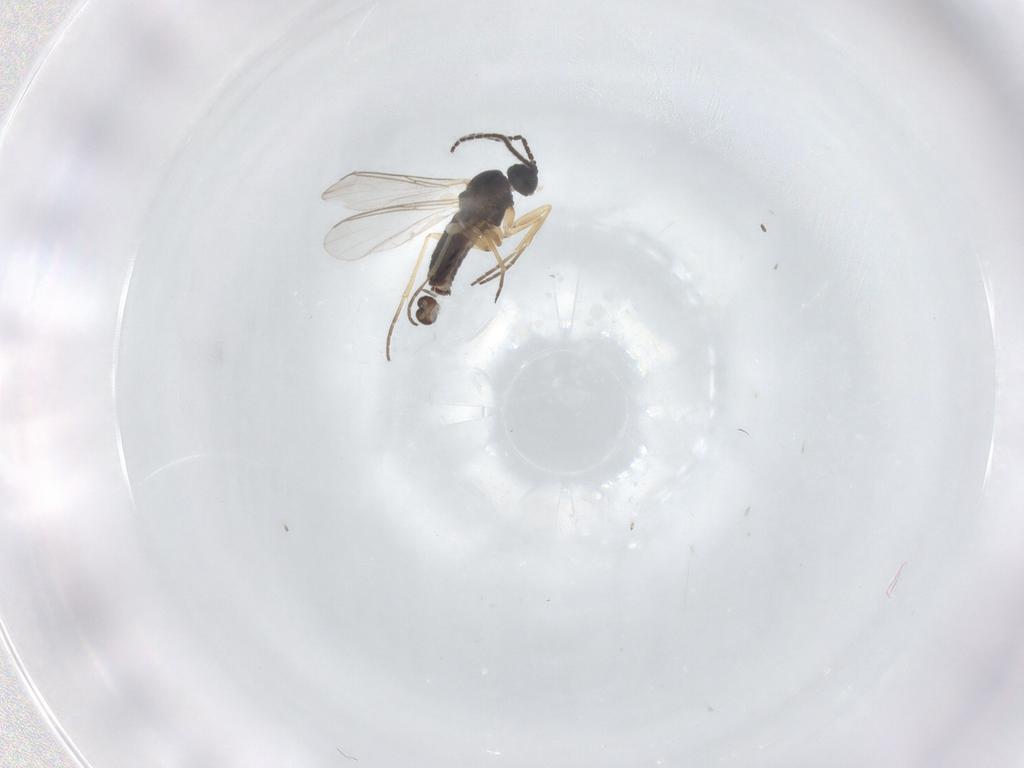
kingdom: Animalia
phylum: Arthropoda
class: Insecta
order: Diptera
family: Sciaridae
